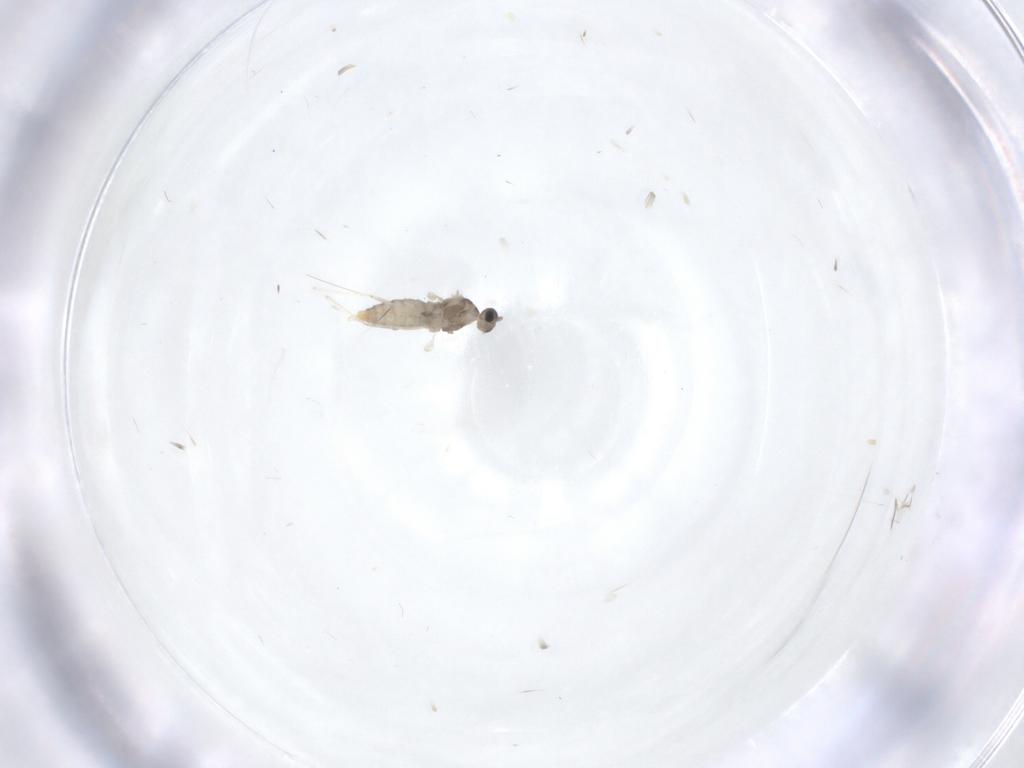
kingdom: Animalia
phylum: Arthropoda
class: Insecta
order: Diptera
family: Cecidomyiidae
